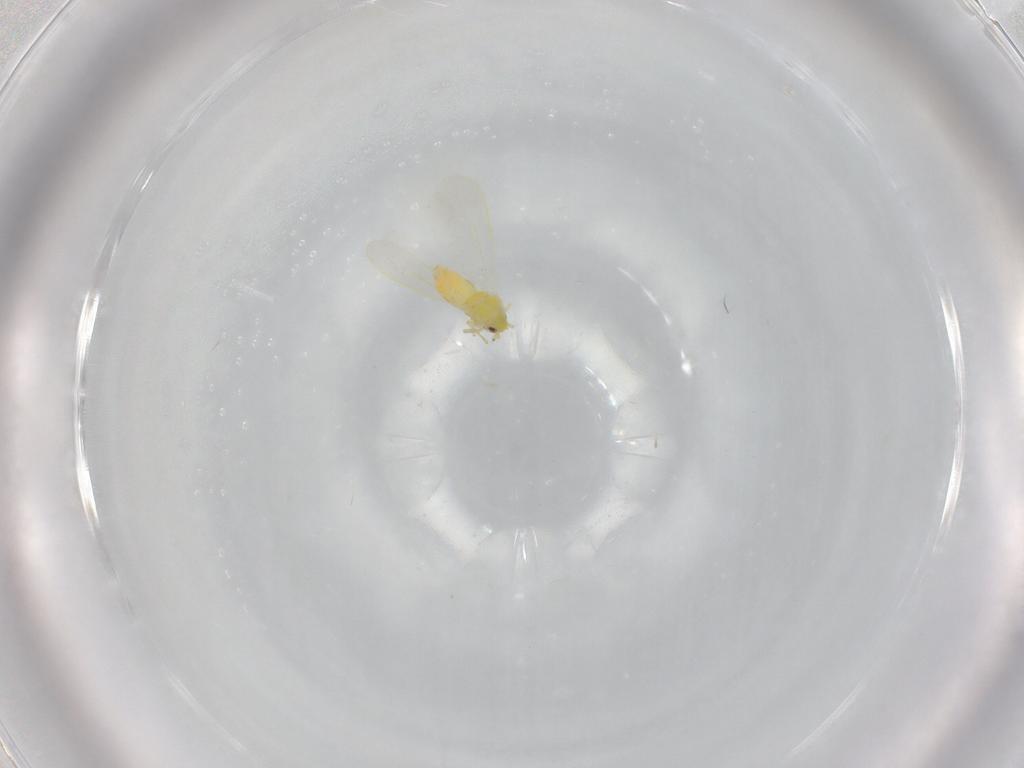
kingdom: Animalia
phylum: Arthropoda
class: Insecta
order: Hemiptera
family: Aleyrodidae
